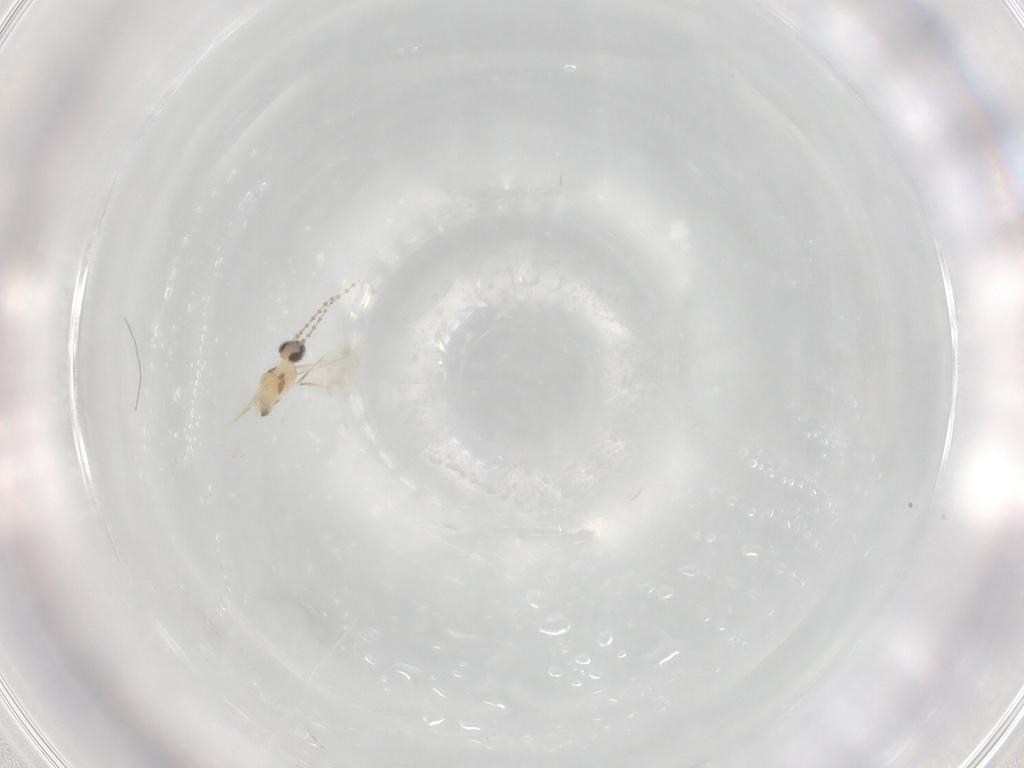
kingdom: Animalia
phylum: Arthropoda
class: Insecta
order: Diptera
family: Cecidomyiidae
